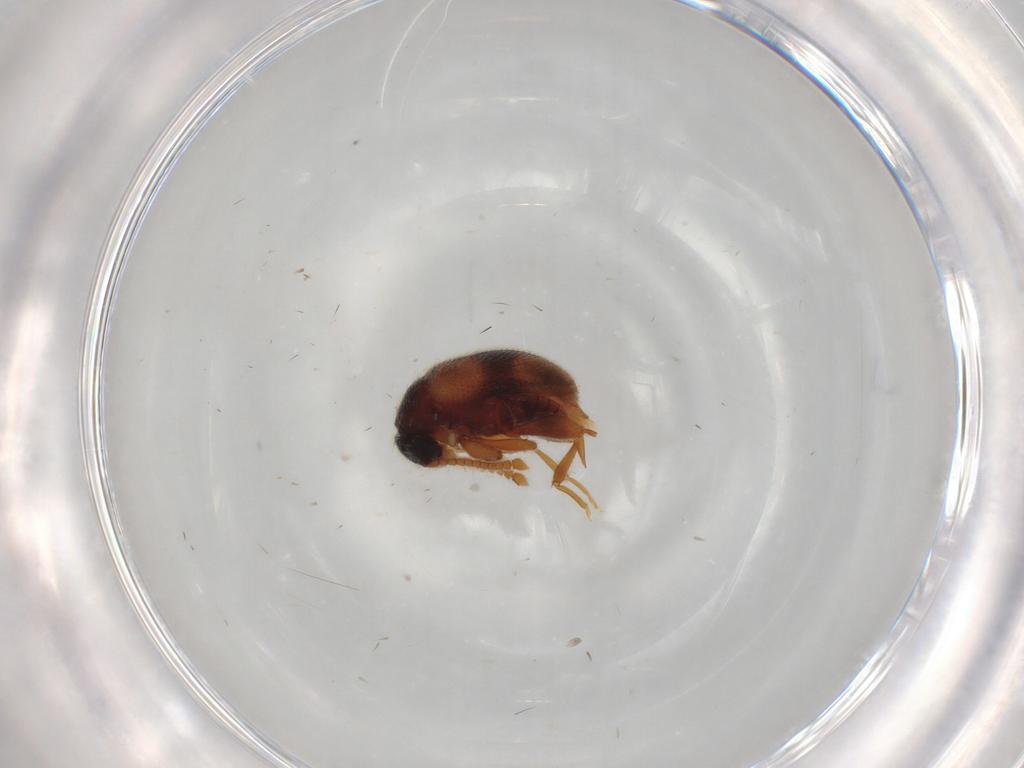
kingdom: Animalia
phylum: Arthropoda
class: Insecta
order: Coleoptera
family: Aderidae
